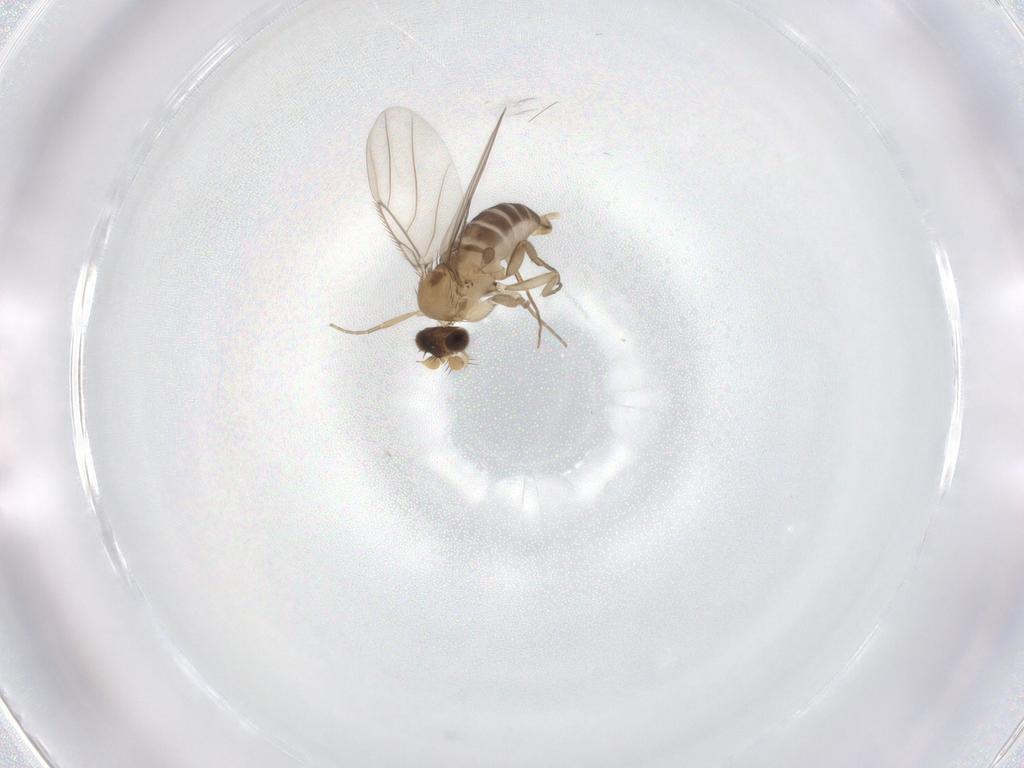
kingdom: Animalia
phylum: Arthropoda
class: Insecta
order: Diptera
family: Phoridae
